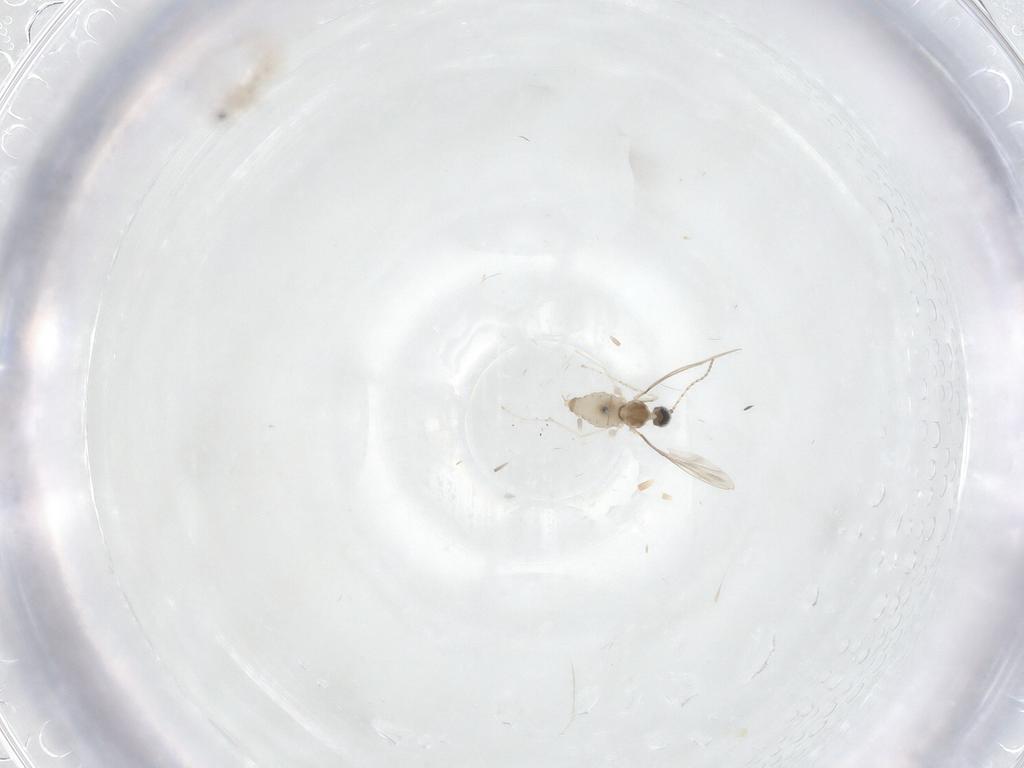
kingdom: Animalia
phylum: Arthropoda
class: Insecta
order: Diptera
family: Cecidomyiidae
